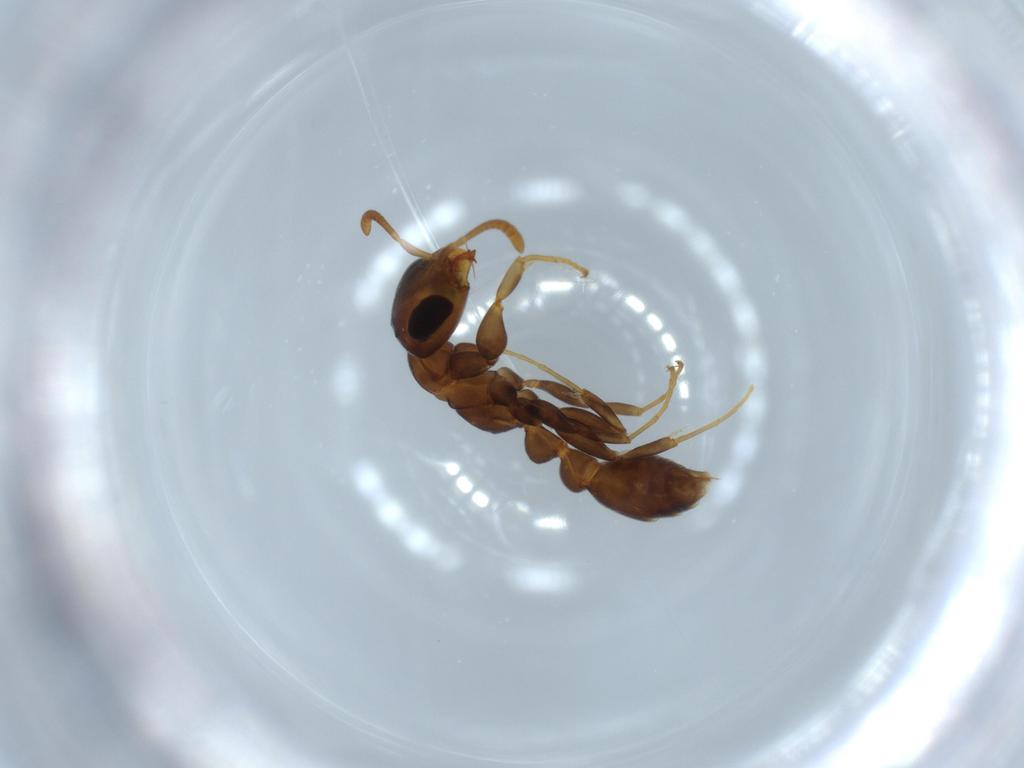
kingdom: Animalia
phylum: Arthropoda
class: Insecta
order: Hymenoptera
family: Formicidae
